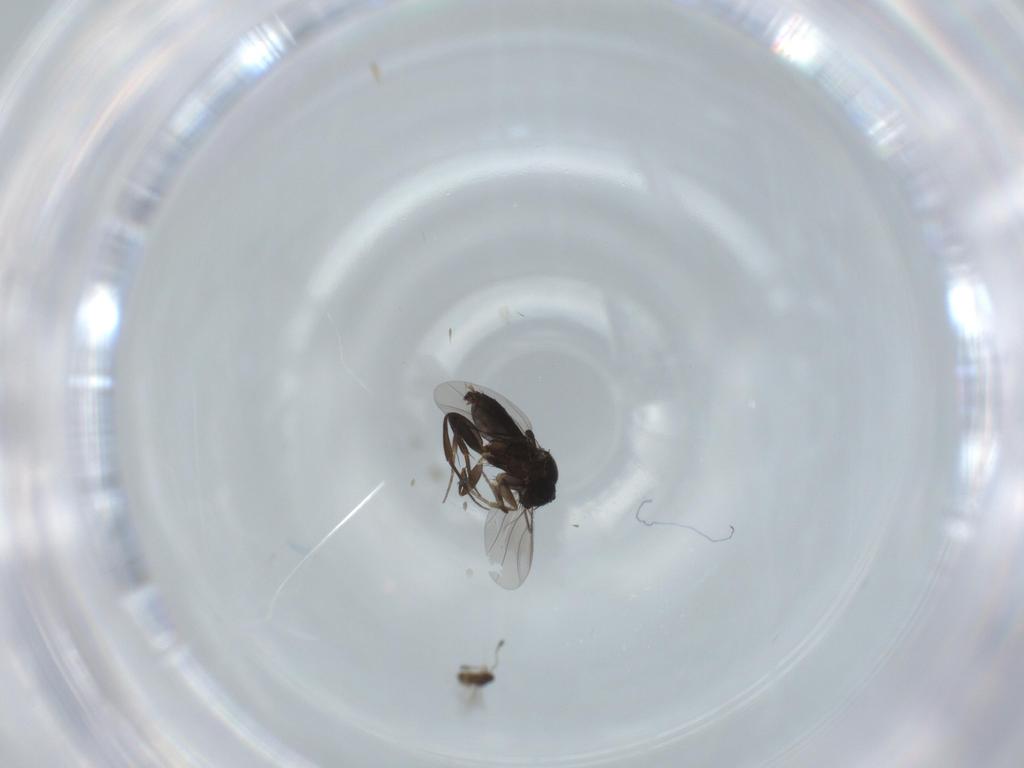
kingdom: Animalia
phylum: Arthropoda
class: Insecta
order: Diptera
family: Phoridae
